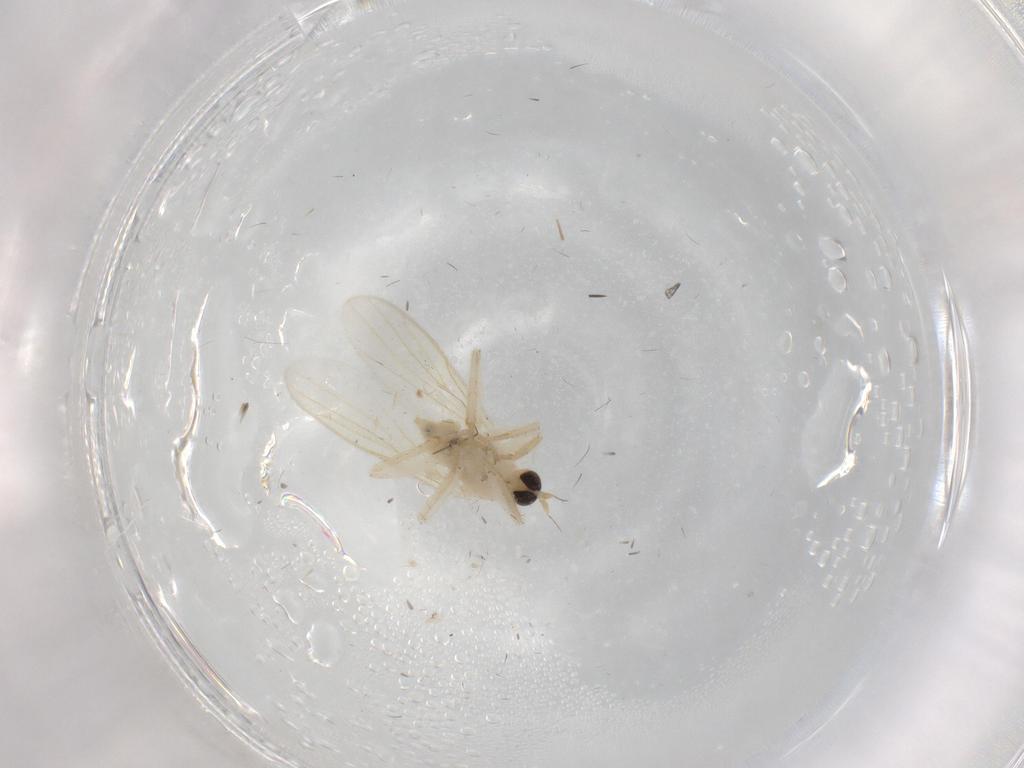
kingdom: Animalia
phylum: Arthropoda
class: Insecta
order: Diptera
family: Hybotidae
